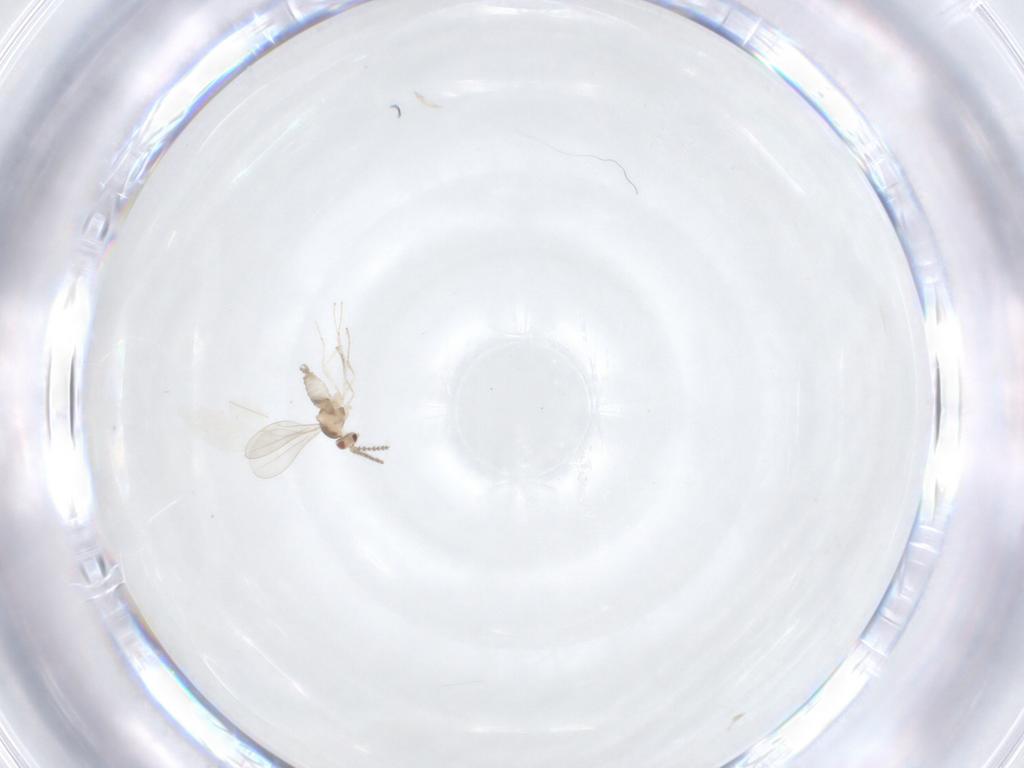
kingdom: Animalia
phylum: Arthropoda
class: Insecta
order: Diptera
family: Cecidomyiidae
